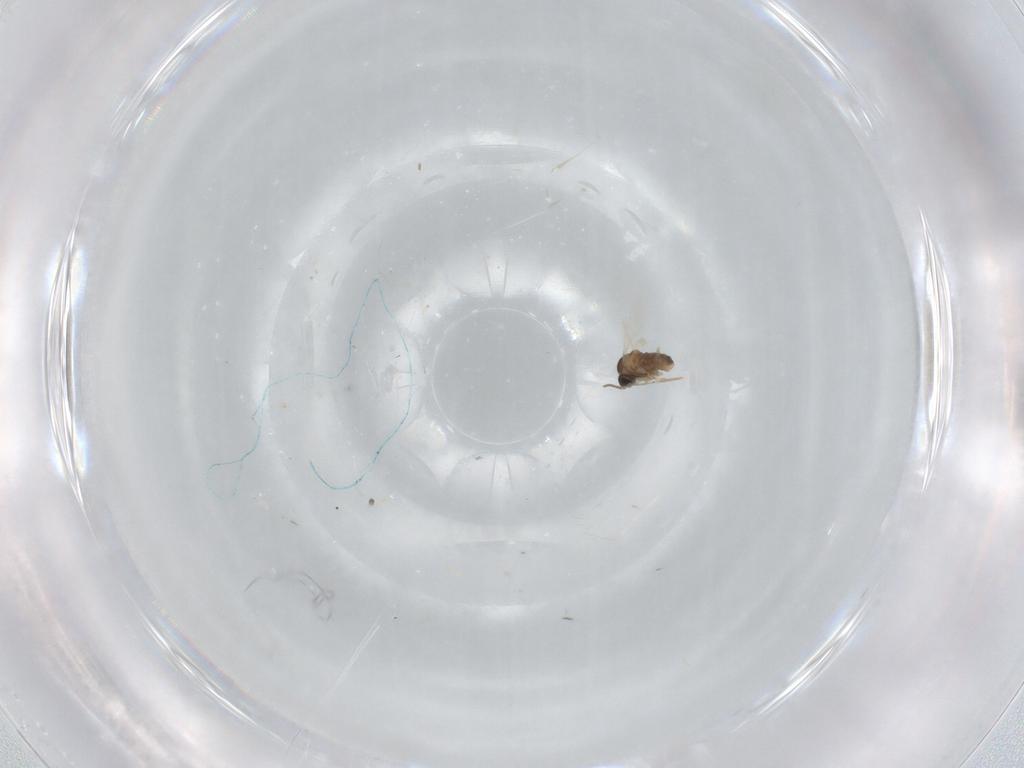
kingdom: Animalia
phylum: Arthropoda
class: Insecta
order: Diptera
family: Cecidomyiidae
